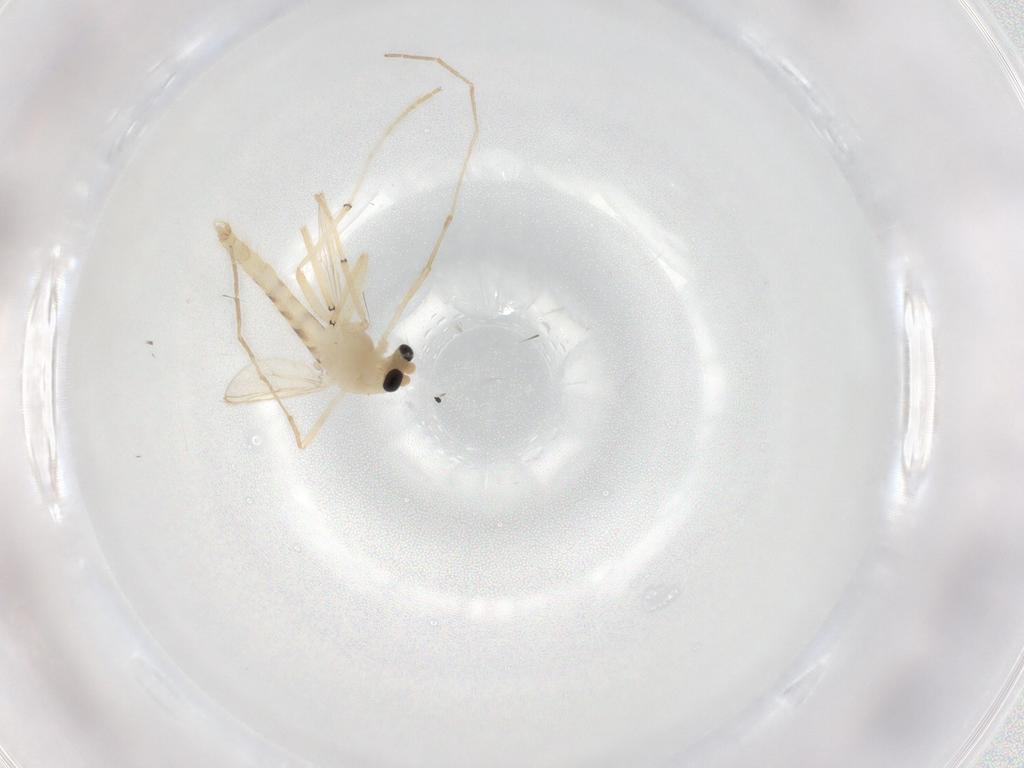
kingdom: Animalia
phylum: Arthropoda
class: Insecta
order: Diptera
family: Chironomidae
